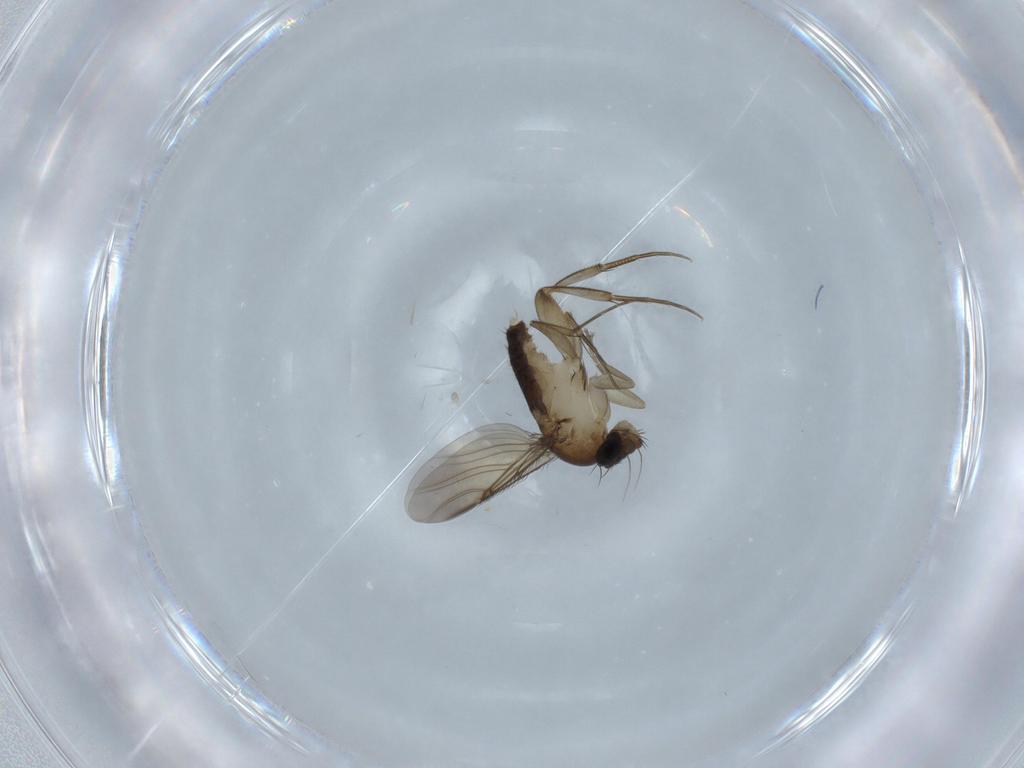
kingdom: Animalia
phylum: Arthropoda
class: Insecta
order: Diptera
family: Phoridae
